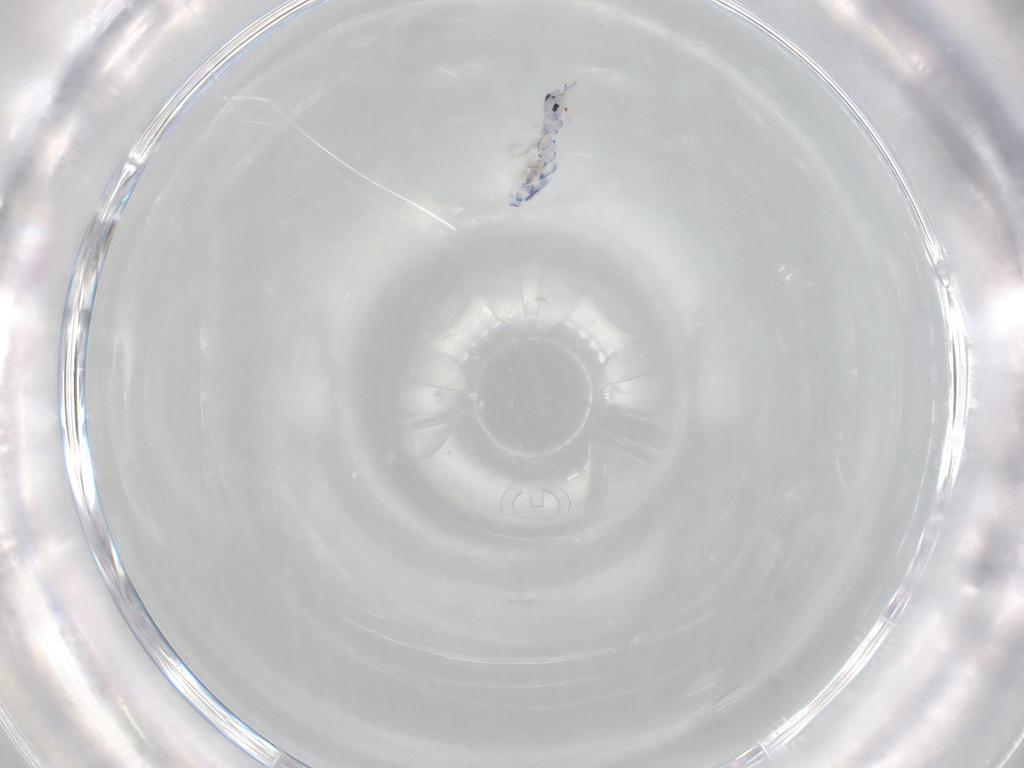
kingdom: Animalia
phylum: Arthropoda
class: Collembola
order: Entomobryomorpha
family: Entomobryidae
